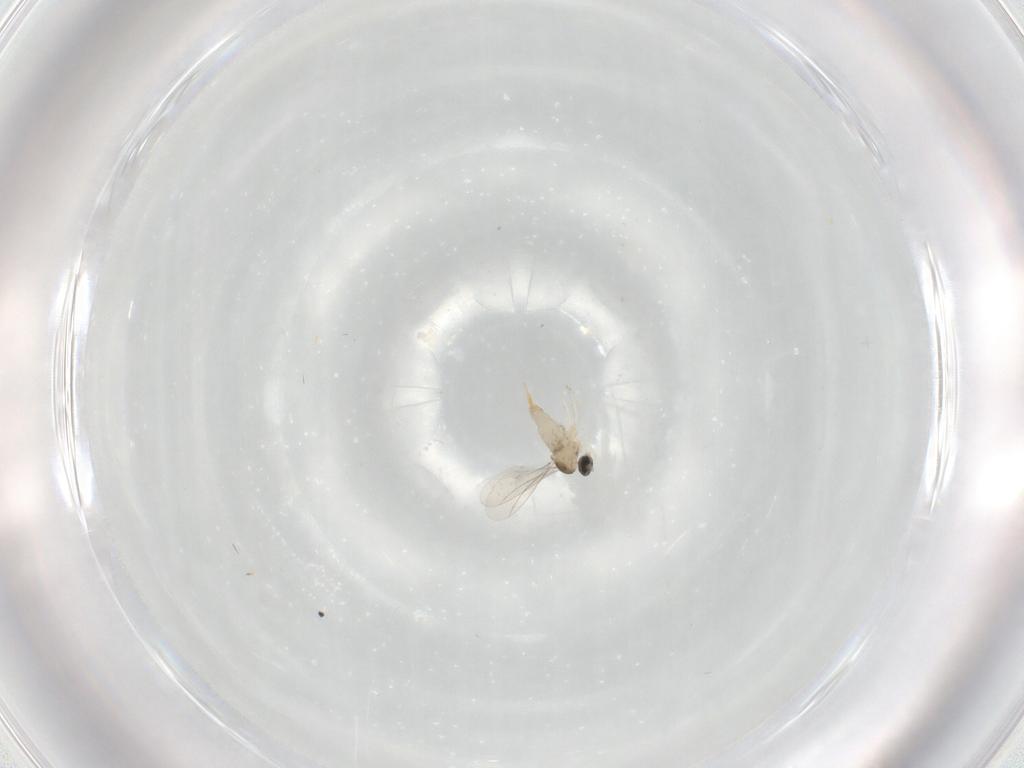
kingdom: Animalia
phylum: Arthropoda
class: Insecta
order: Diptera
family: Cecidomyiidae
